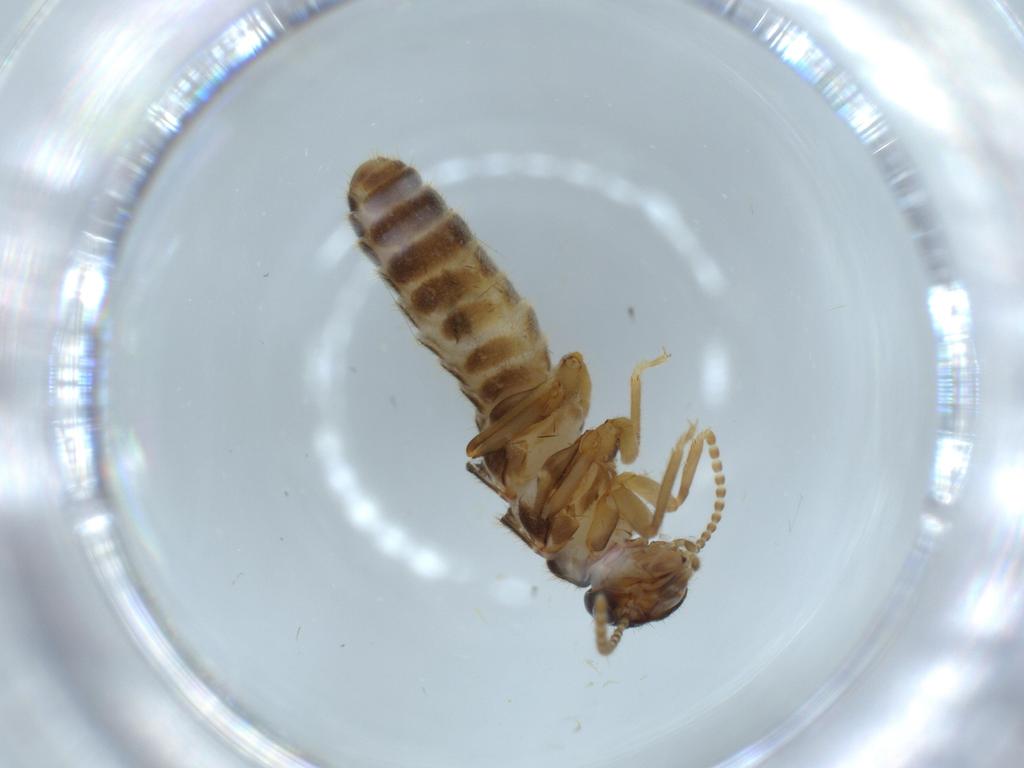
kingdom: Animalia
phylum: Arthropoda
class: Insecta
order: Blattodea
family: Termitidae
